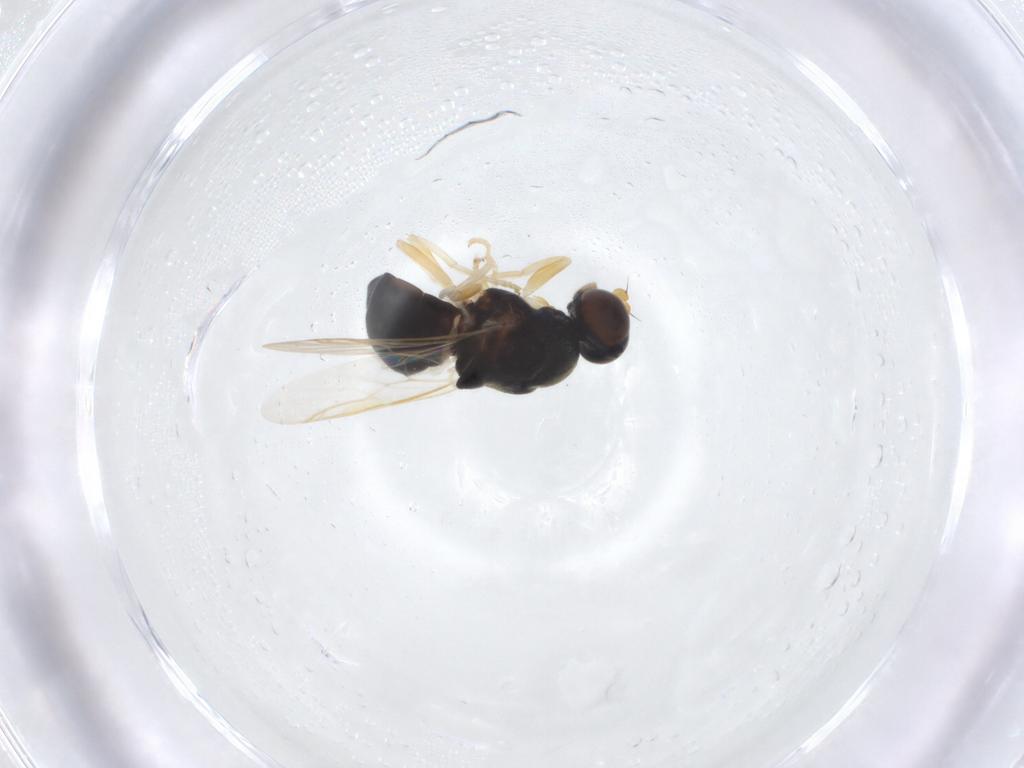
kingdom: Animalia
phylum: Arthropoda
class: Insecta
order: Diptera
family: Stratiomyidae
